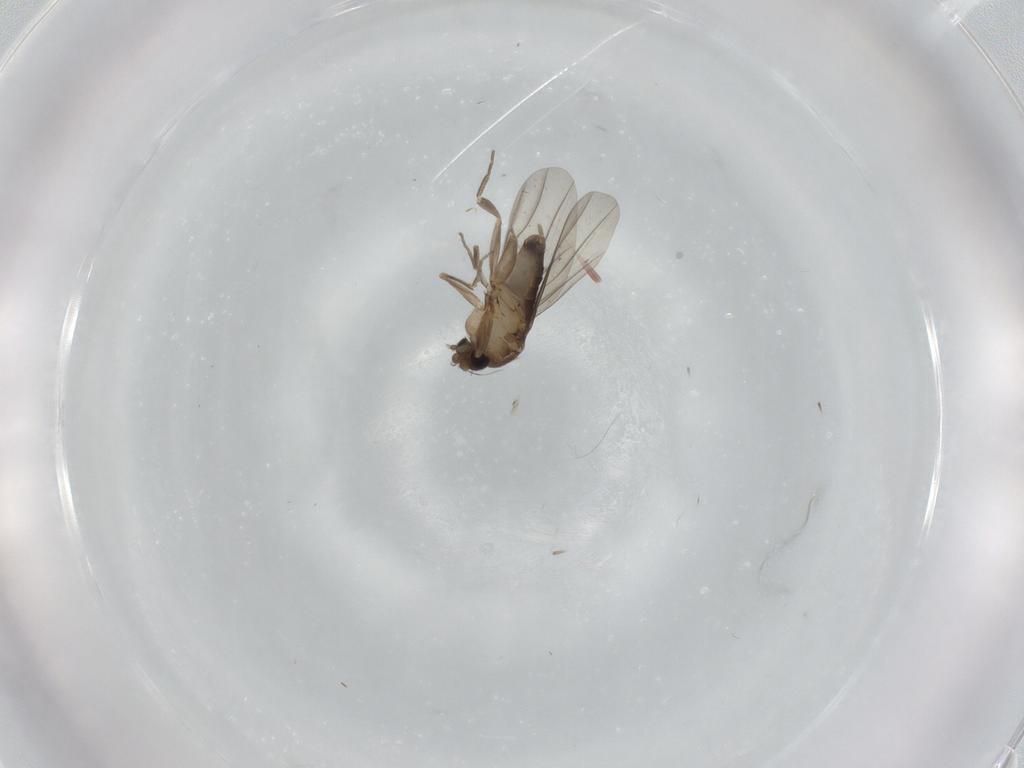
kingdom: Animalia
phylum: Arthropoda
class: Insecta
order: Diptera
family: Phoridae
